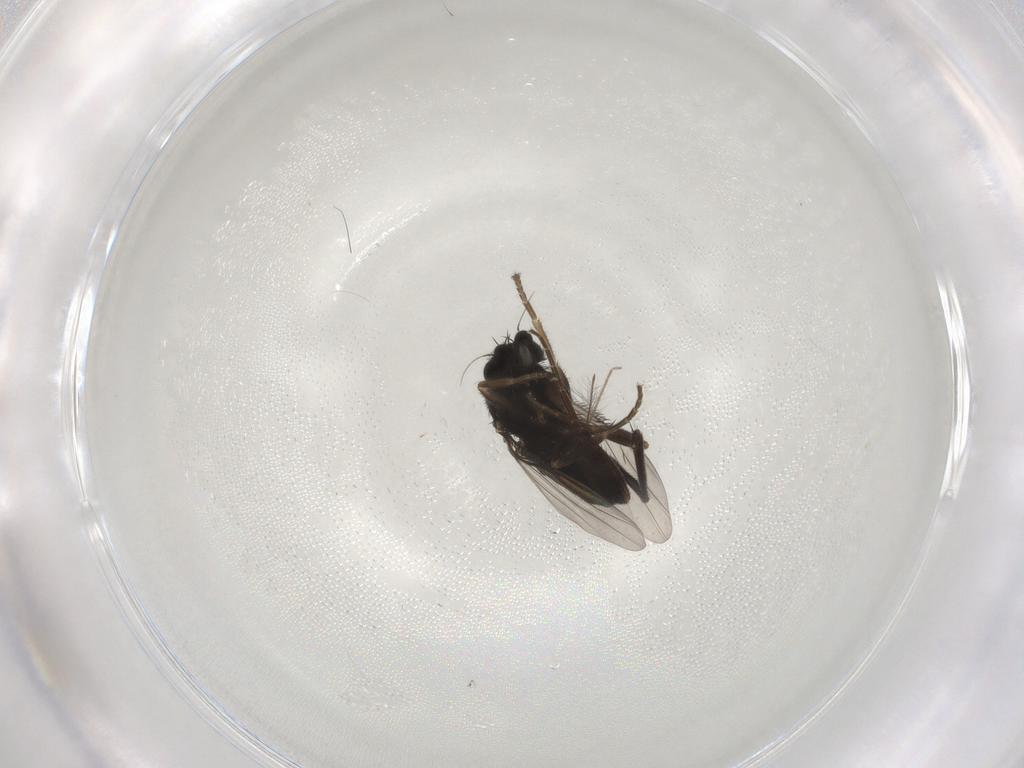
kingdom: Animalia
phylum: Arthropoda
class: Insecta
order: Diptera
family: Phoridae
